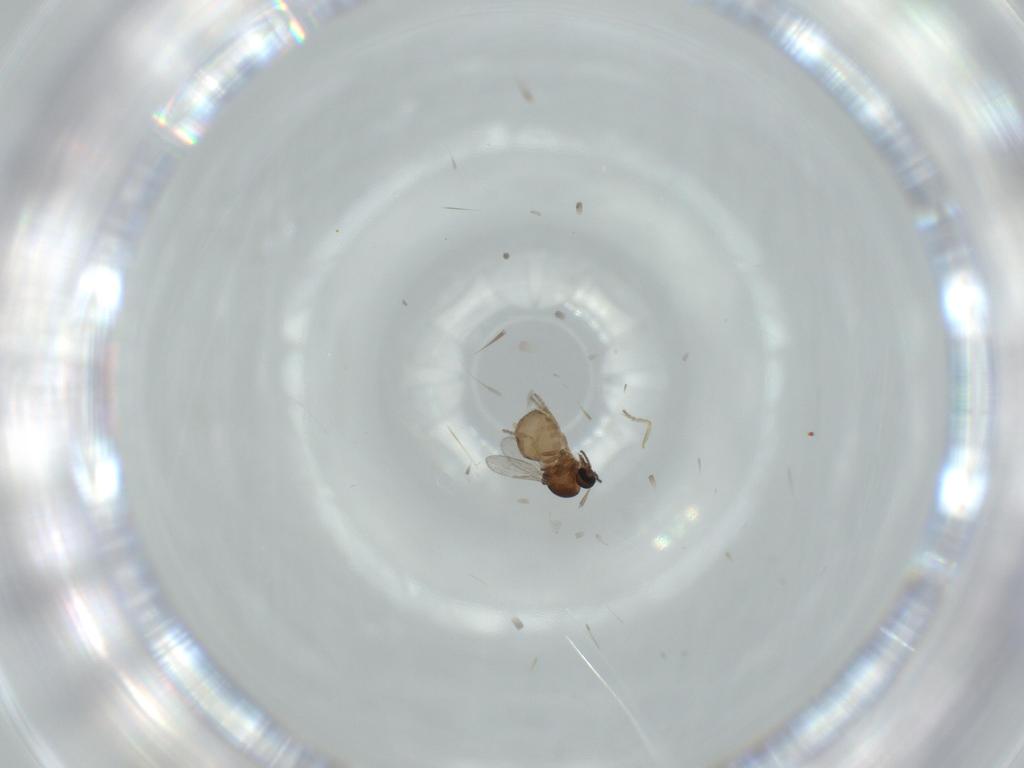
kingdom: Animalia
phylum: Arthropoda
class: Insecta
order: Diptera
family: Ceratopogonidae
